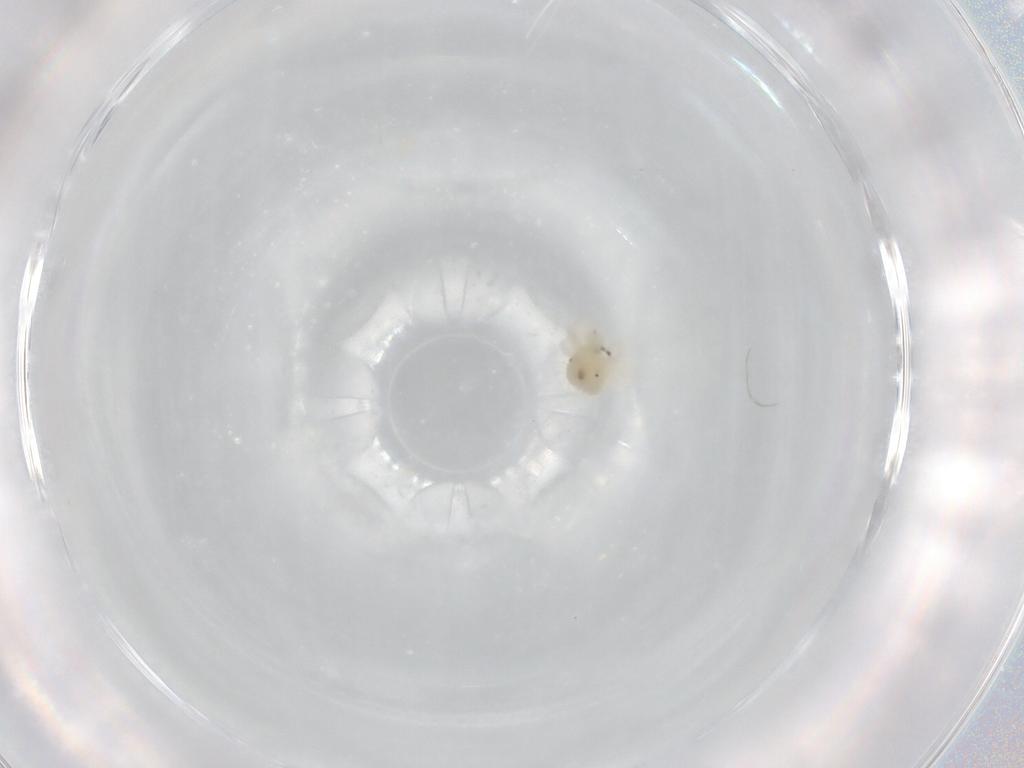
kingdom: Animalia
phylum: Arthropoda
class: Arachnida
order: Trombidiformes
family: Anystidae
